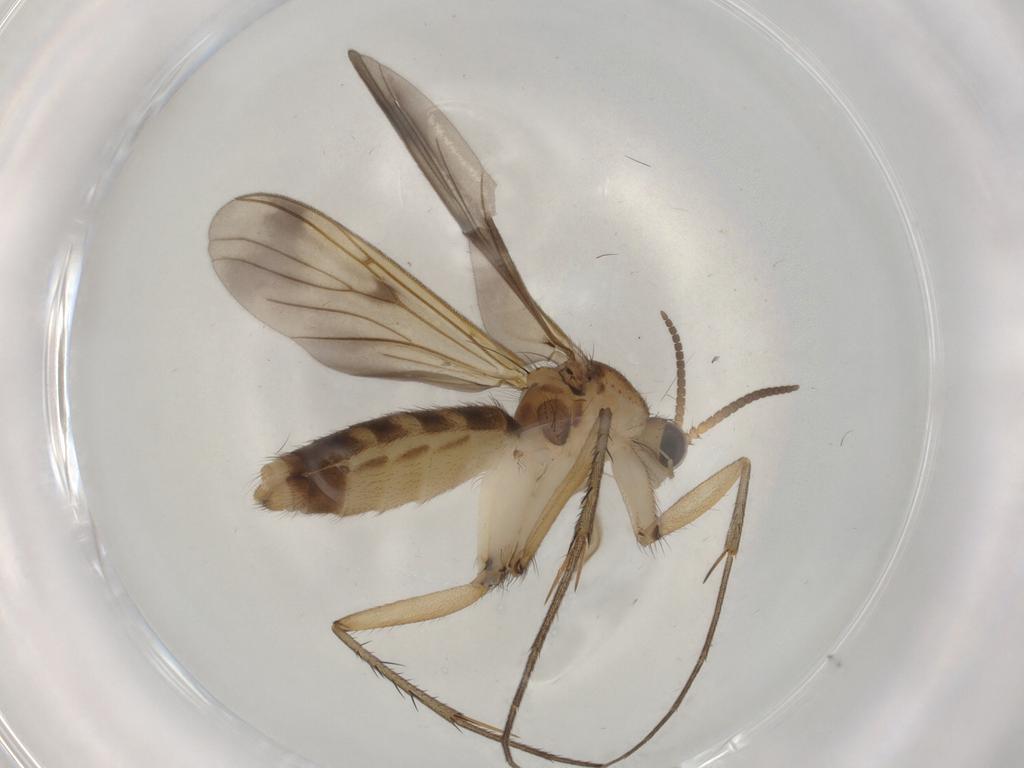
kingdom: Animalia
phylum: Arthropoda
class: Insecta
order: Diptera
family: Mycetophilidae
